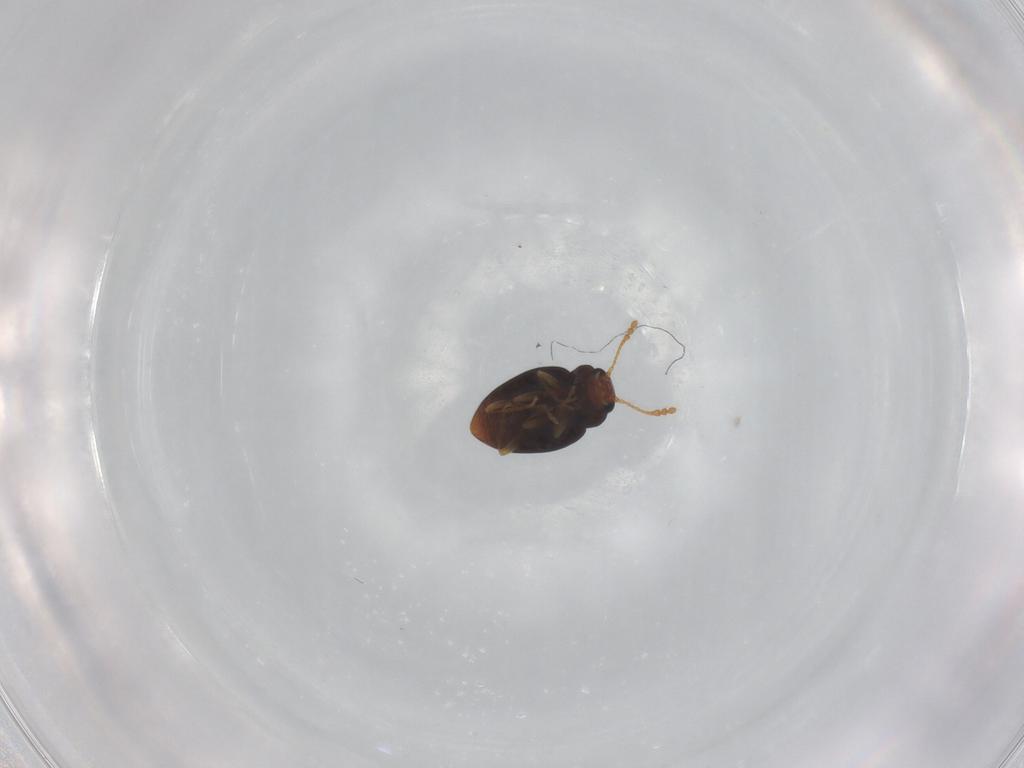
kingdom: Animalia
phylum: Arthropoda
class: Insecta
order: Coleoptera
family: Erotylidae
